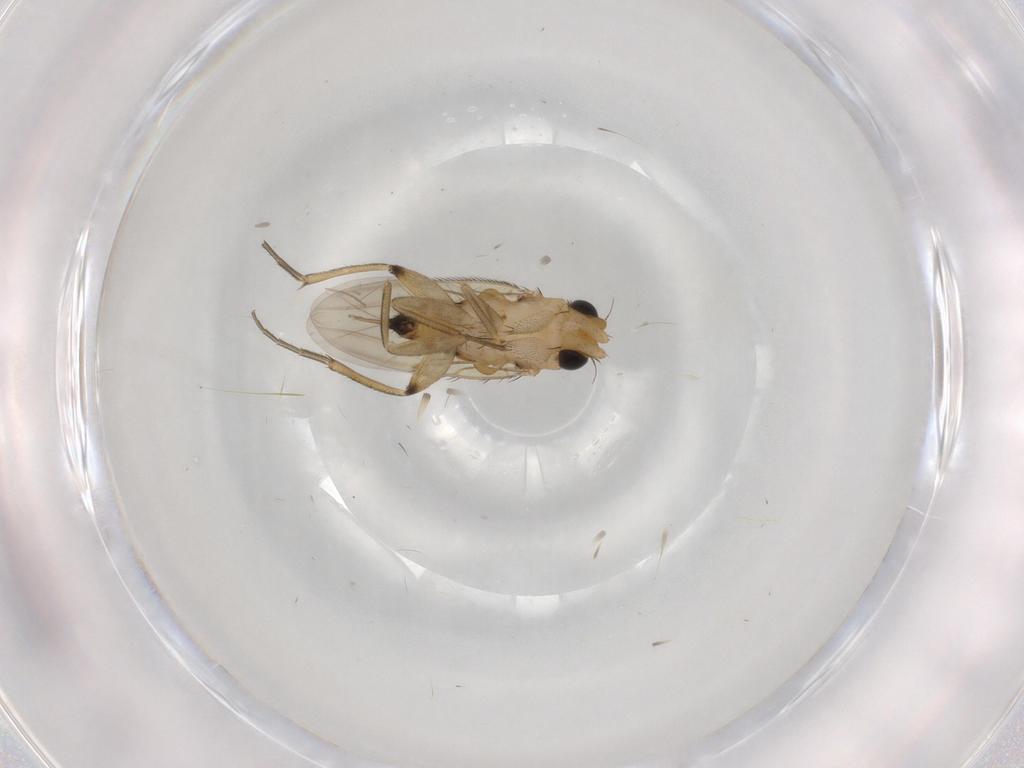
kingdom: Animalia
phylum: Arthropoda
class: Insecta
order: Diptera
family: Phoridae
